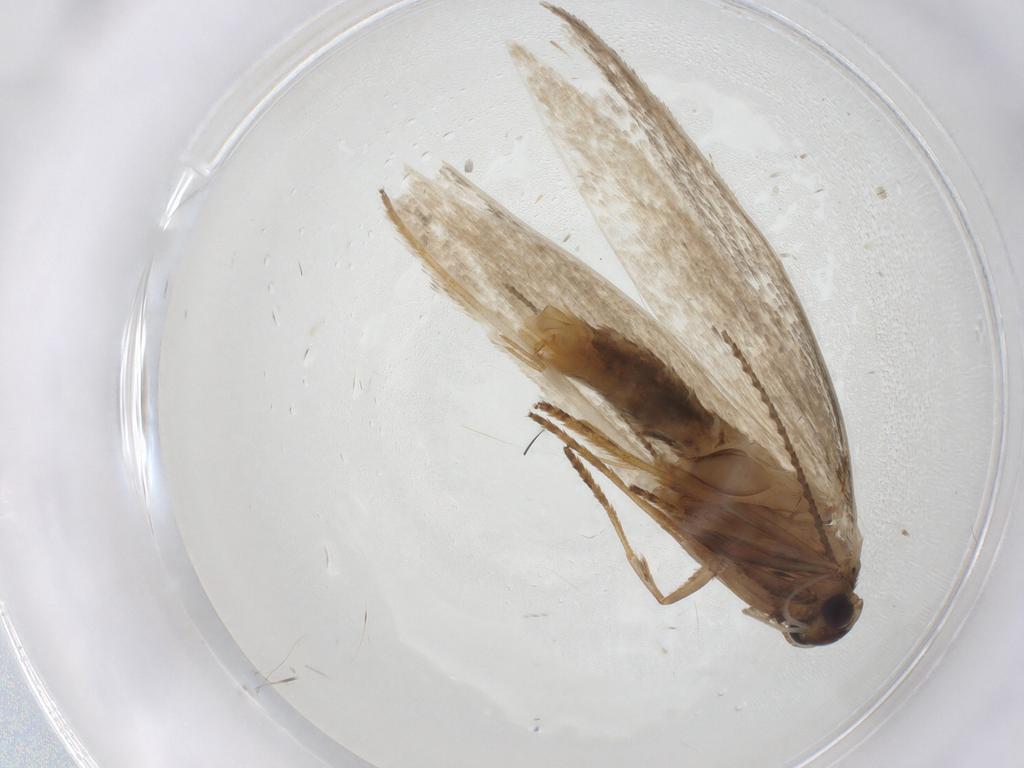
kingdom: Animalia
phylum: Arthropoda
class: Insecta
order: Lepidoptera
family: Erebidae
